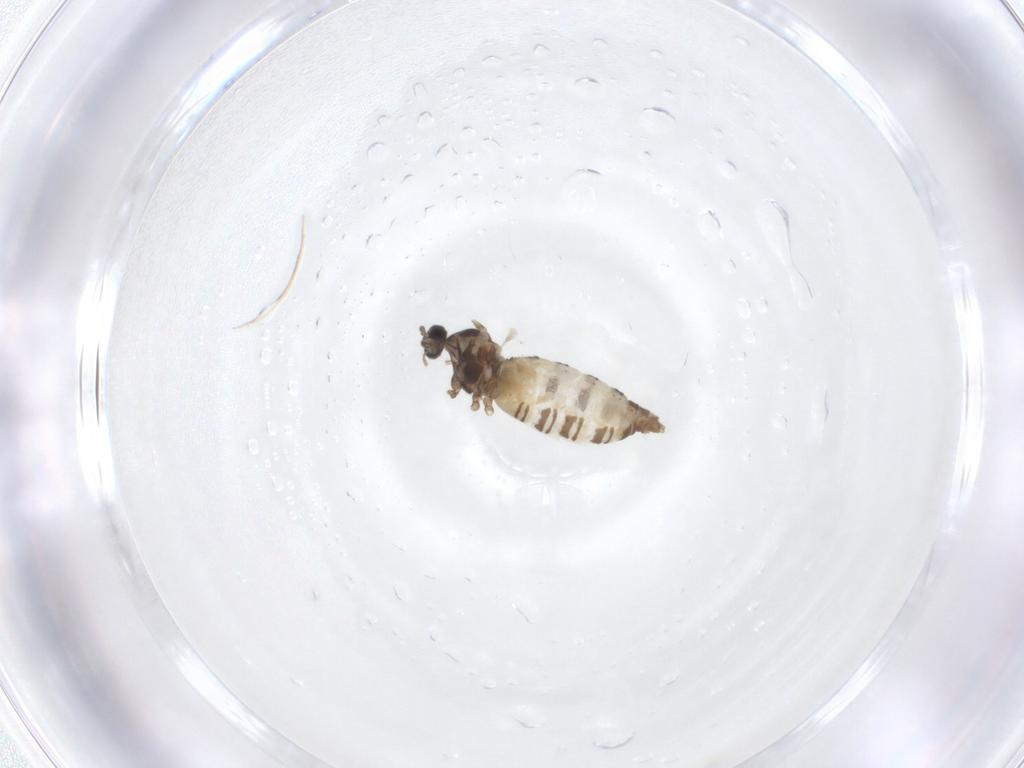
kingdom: Animalia
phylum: Arthropoda
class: Insecta
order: Diptera
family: Cecidomyiidae
